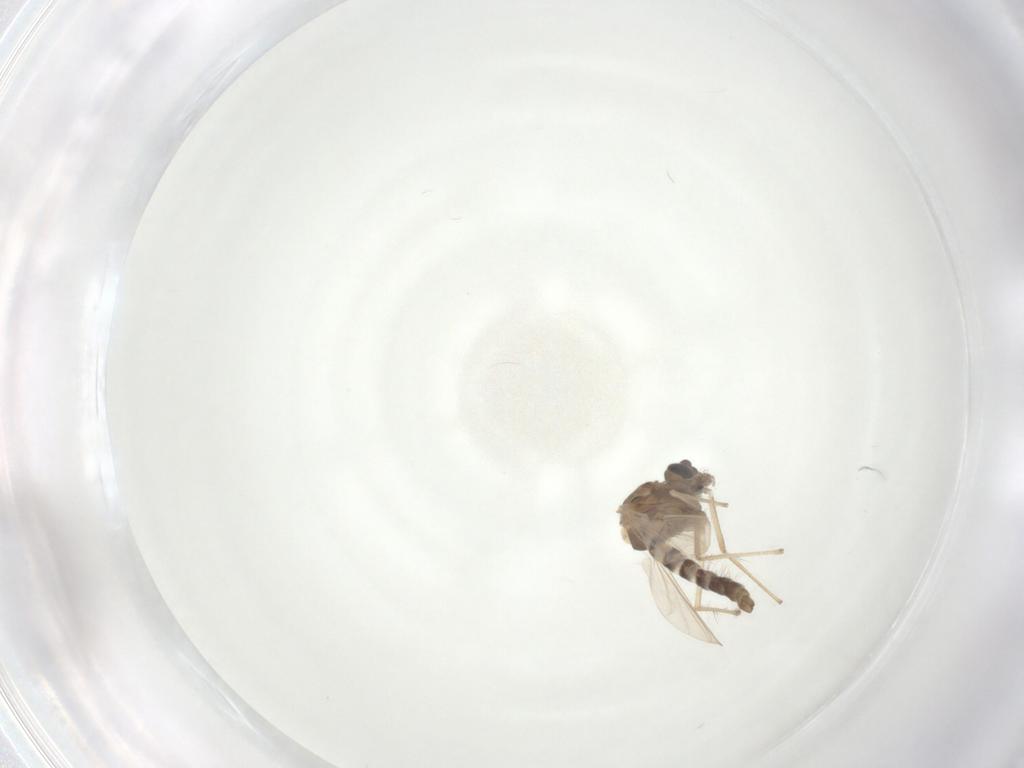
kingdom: Animalia
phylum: Arthropoda
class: Insecta
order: Diptera
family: Chironomidae
